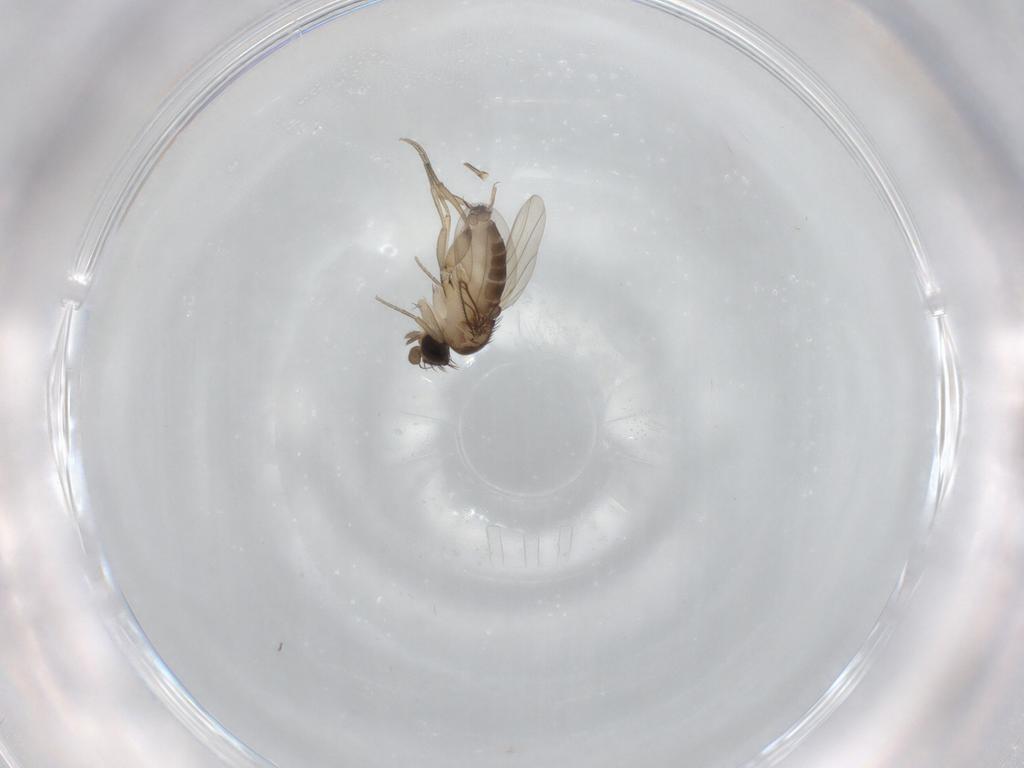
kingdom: Animalia
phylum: Arthropoda
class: Insecta
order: Diptera
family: Phoridae
